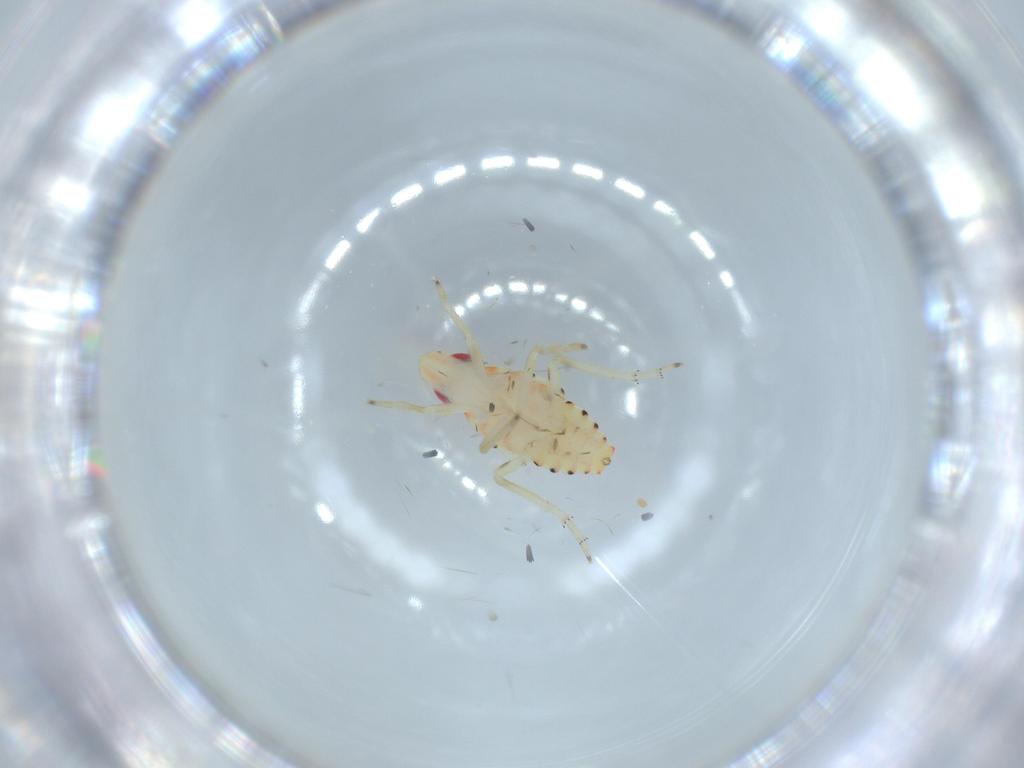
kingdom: Animalia
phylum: Arthropoda
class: Insecta
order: Hemiptera
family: Tropiduchidae
